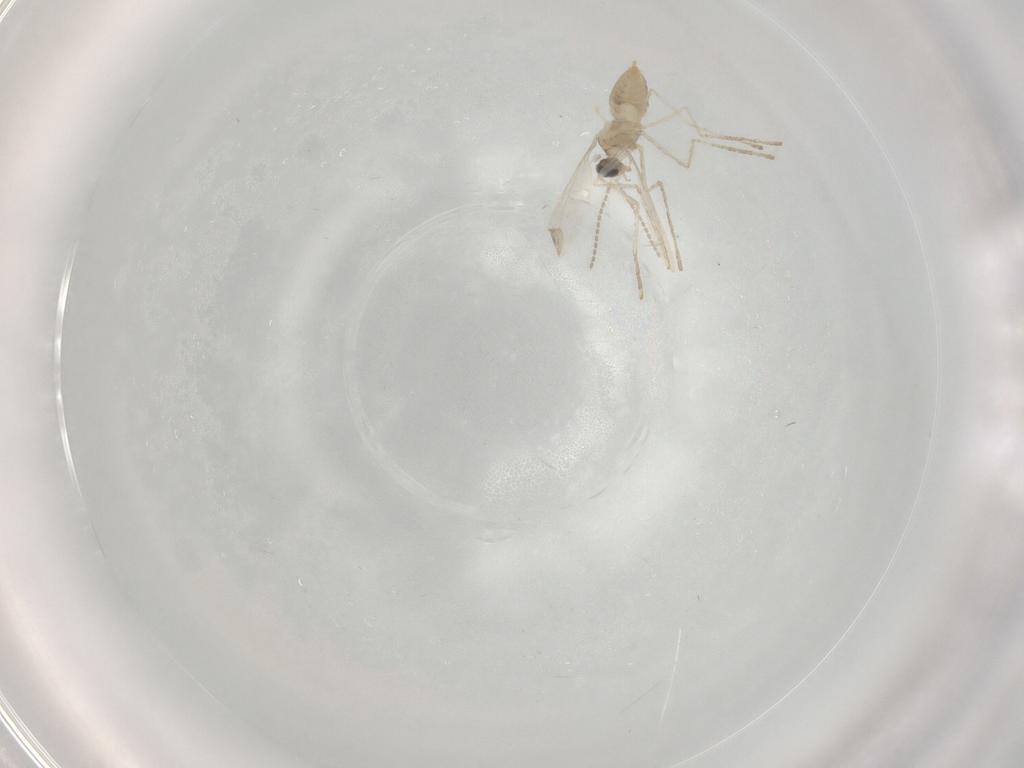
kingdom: Animalia
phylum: Arthropoda
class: Insecta
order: Diptera
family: Cecidomyiidae
